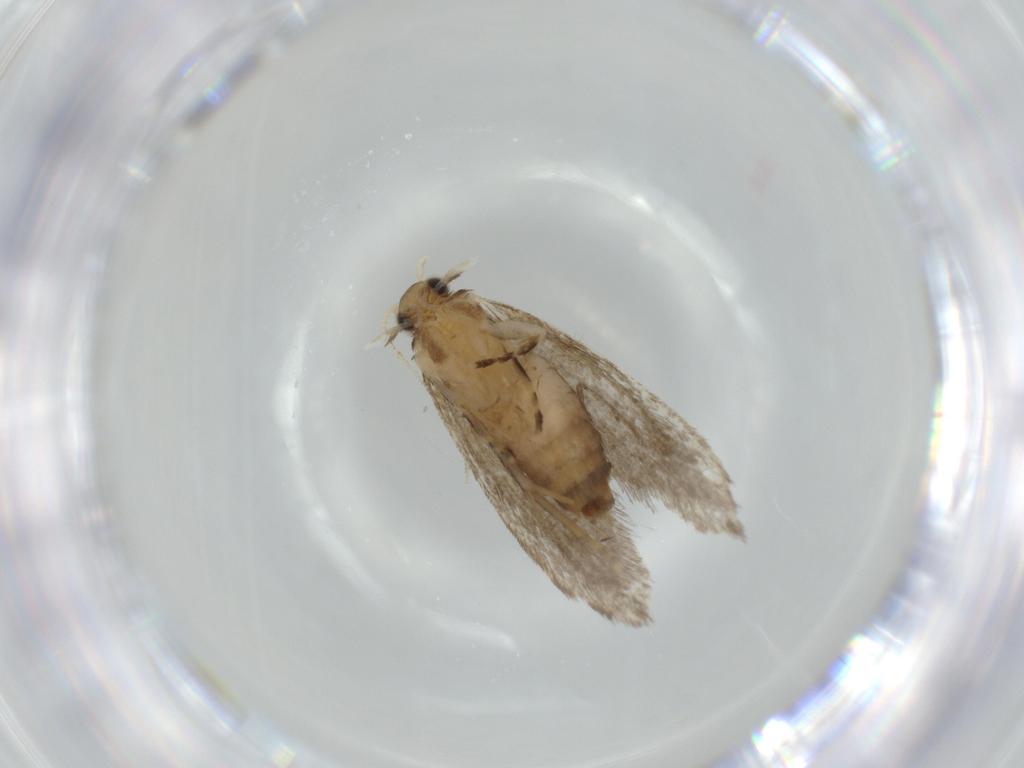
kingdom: Animalia
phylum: Arthropoda
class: Insecta
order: Lepidoptera
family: Tineidae
